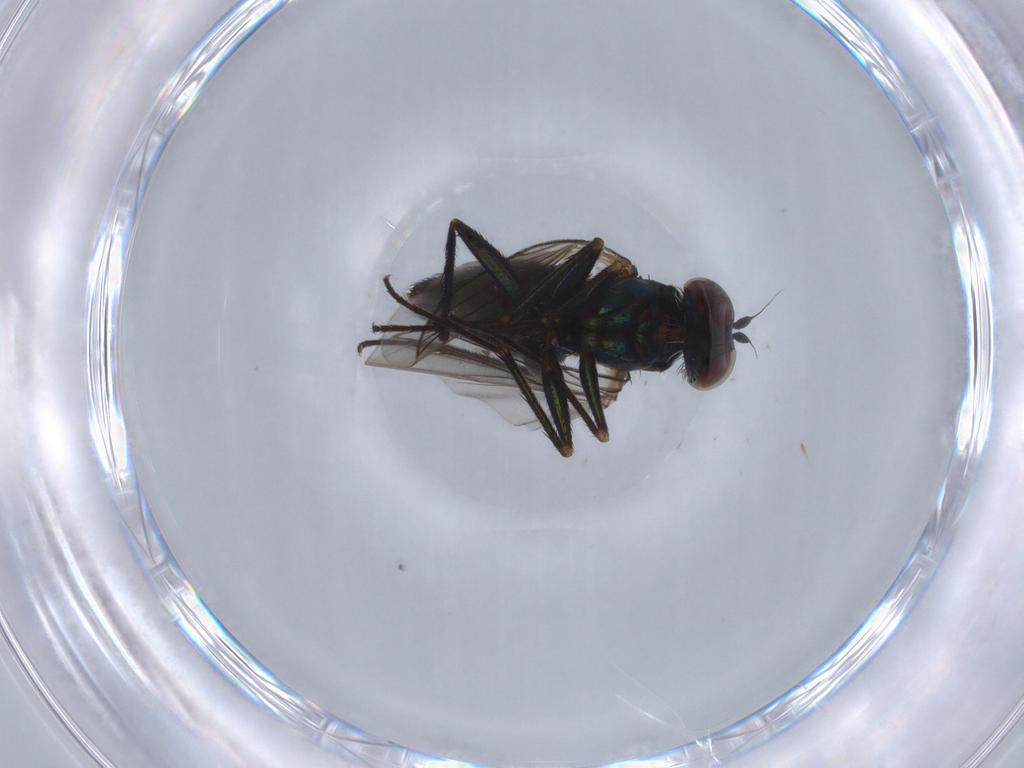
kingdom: Animalia
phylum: Arthropoda
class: Insecta
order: Diptera
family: Dolichopodidae
